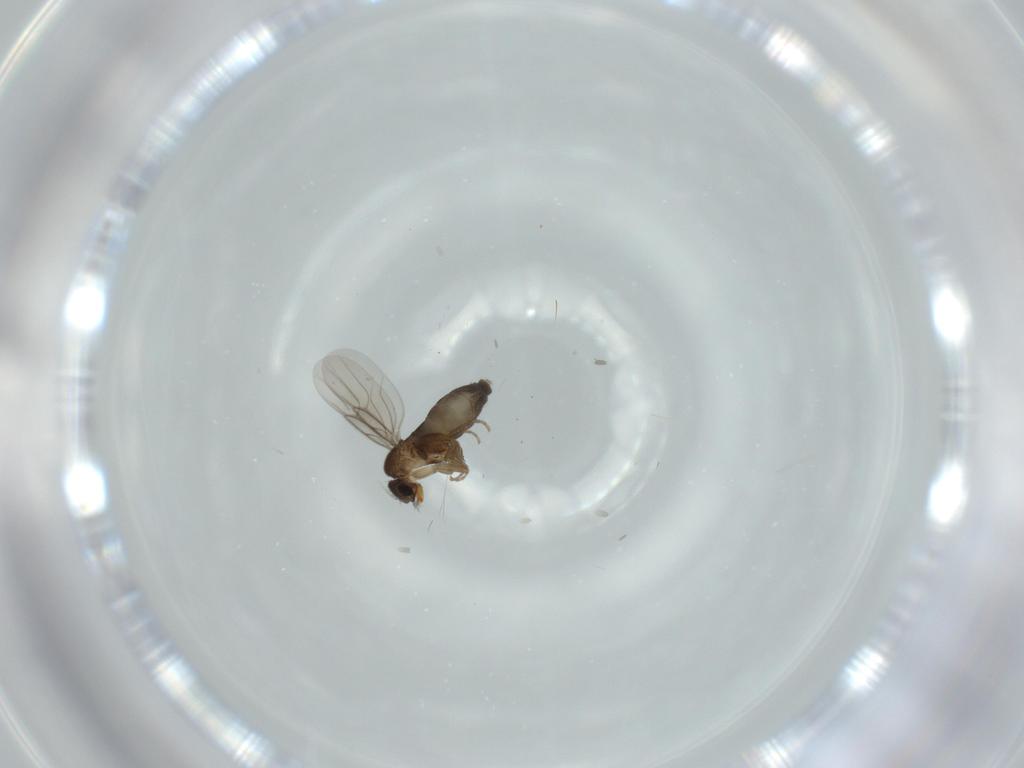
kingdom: Animalia
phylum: Arthropoda
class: Insecta
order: Diptera
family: Phoridae
